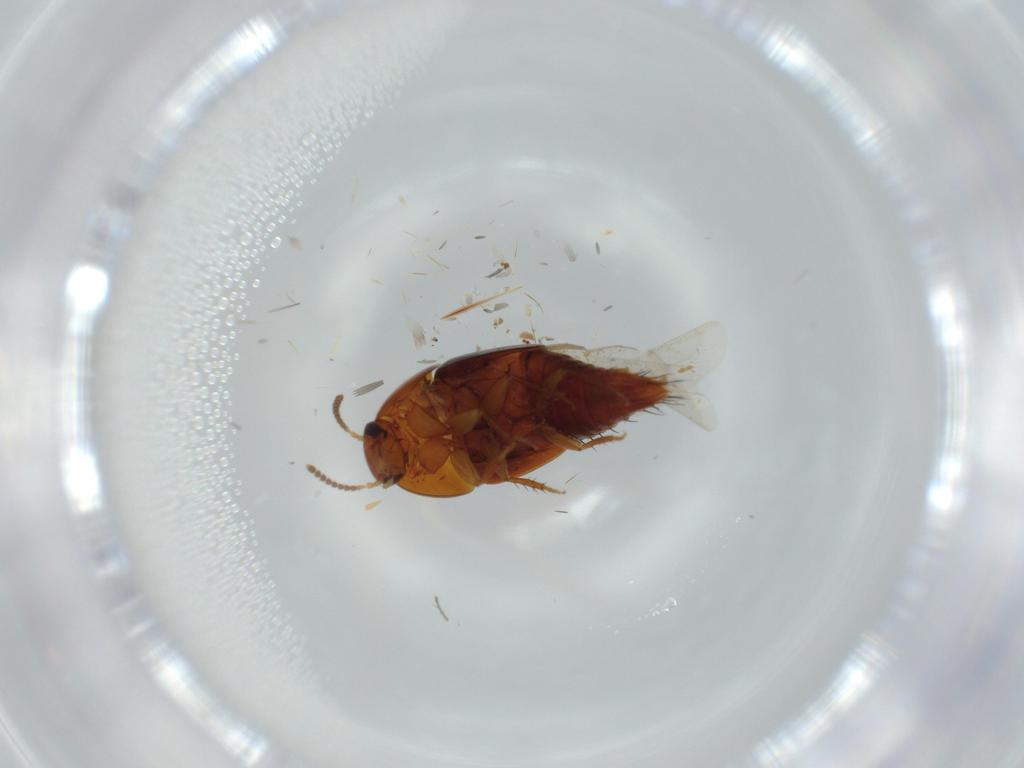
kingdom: Animalia
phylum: Arthropoda
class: Insecta
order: Coleoptera
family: Staphylinidae
